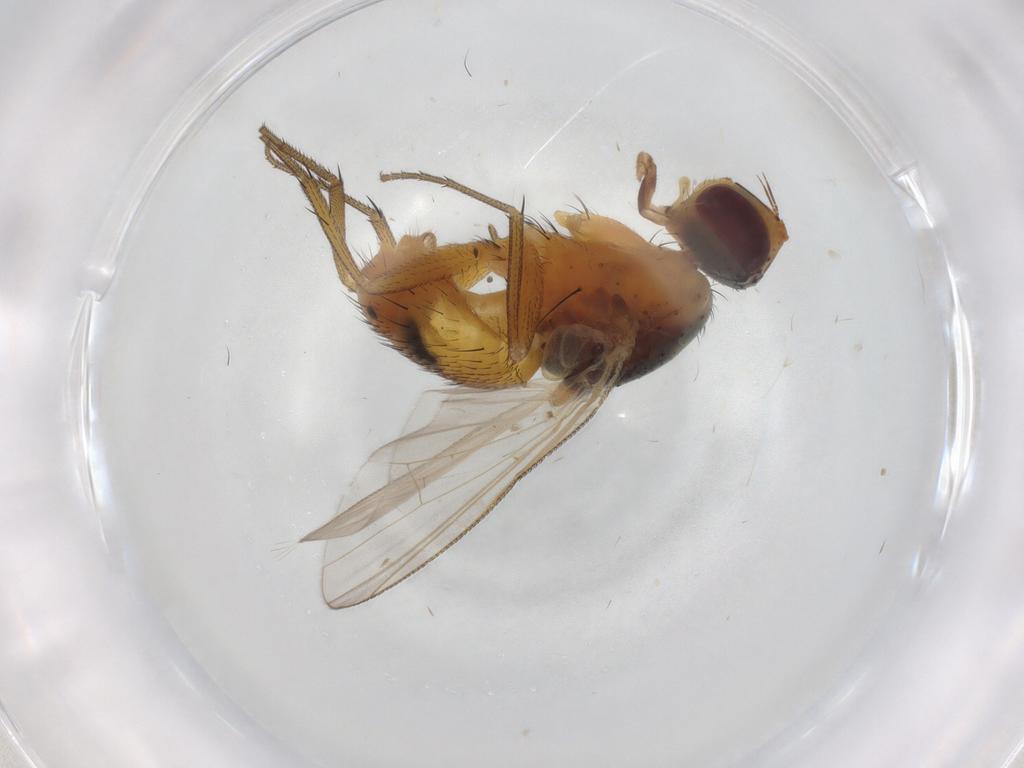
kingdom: Animalia
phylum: Arthropoda
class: Insecta
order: Diptera
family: Muscidae
